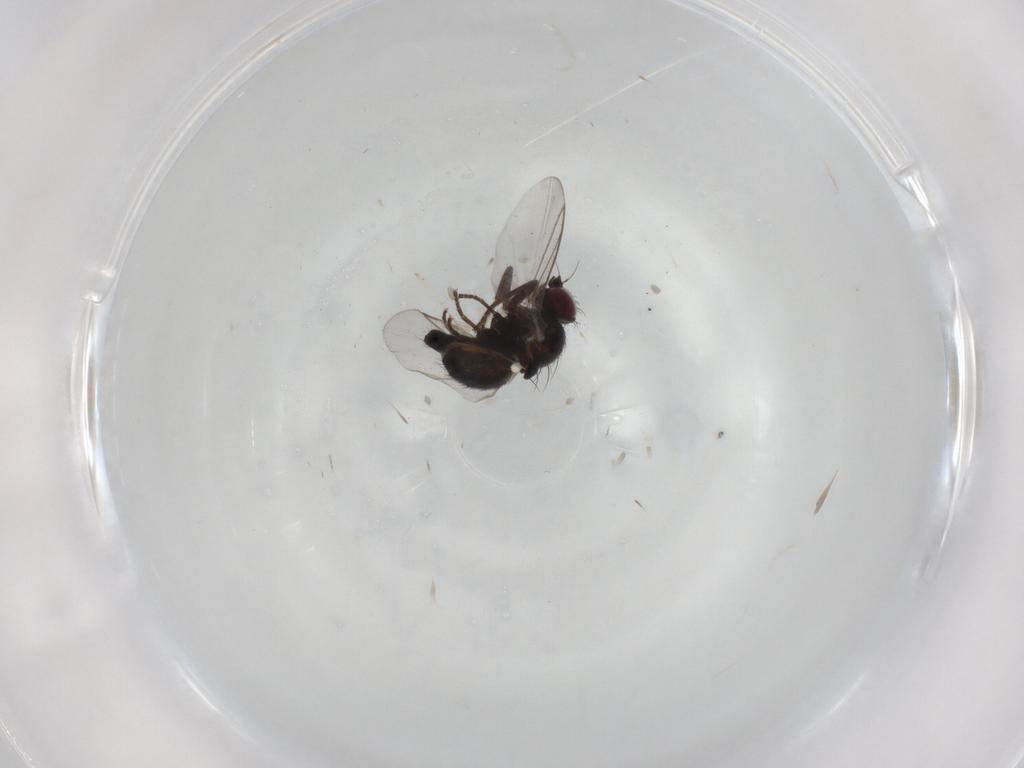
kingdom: Animalia
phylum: Arthropoda
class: Insecta
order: Diptera
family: Agromyzidae
